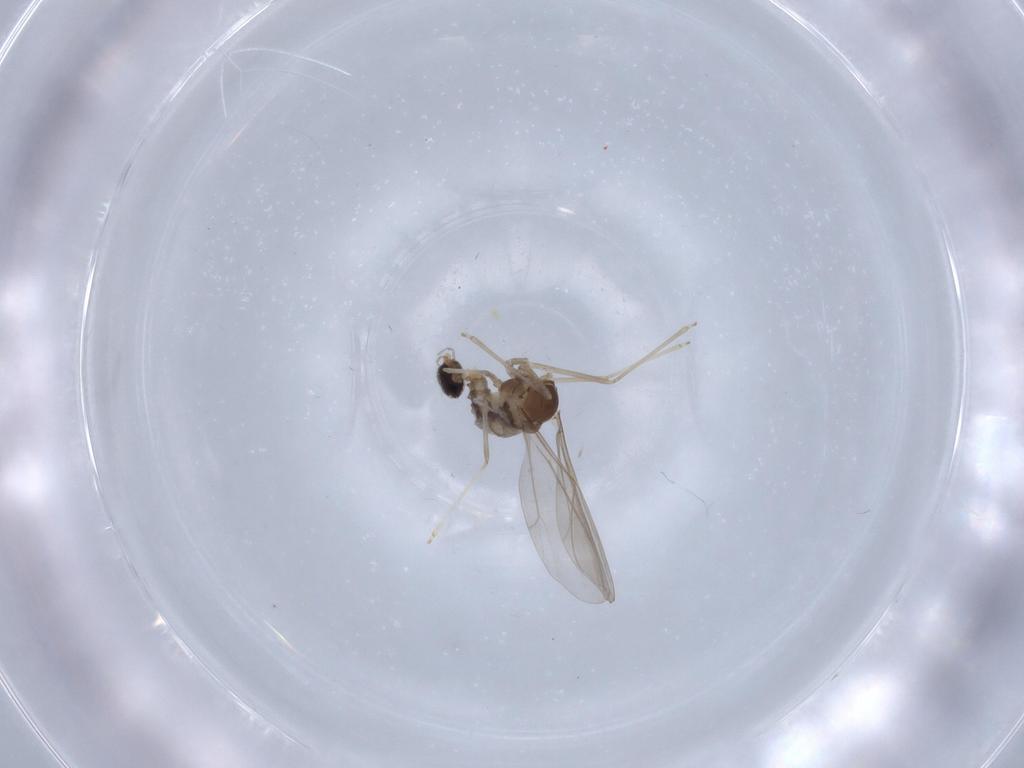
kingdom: Animalia
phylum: Arthropoda
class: Insecta
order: Diptera
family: Cecidomyiidae
